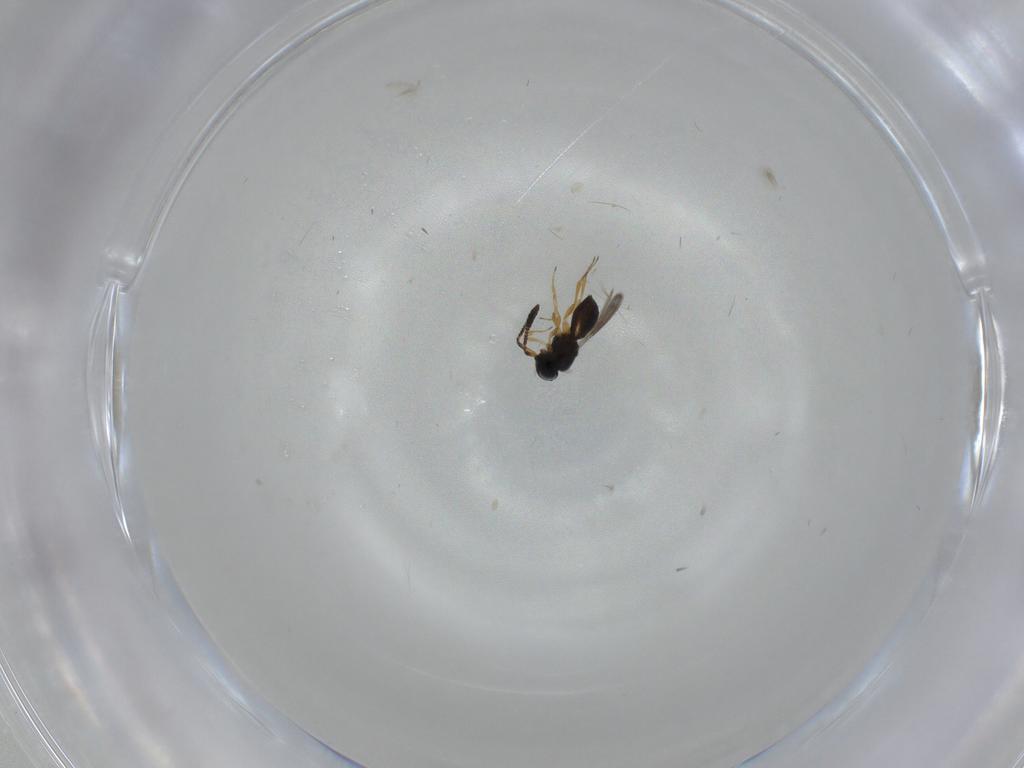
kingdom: Animalia
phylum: Arthropoda
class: Insecta
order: Hymenoptera
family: Scelionidae
